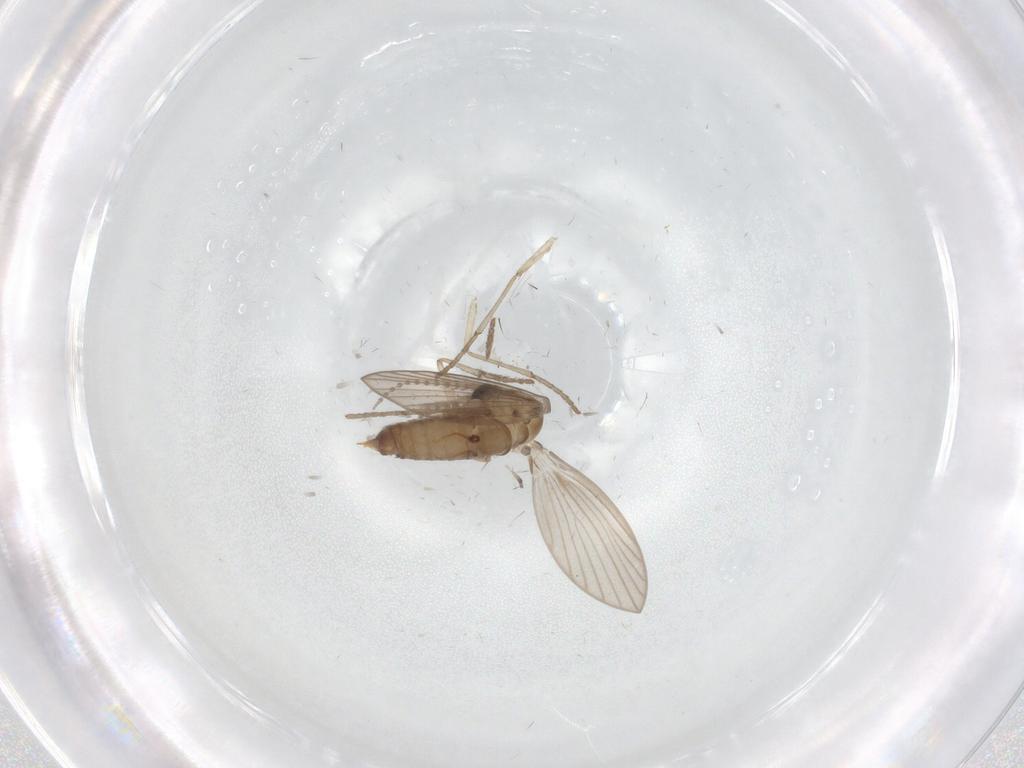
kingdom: Animalia
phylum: Arthropoda
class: Insecta
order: Diptera
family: Psychodidae
